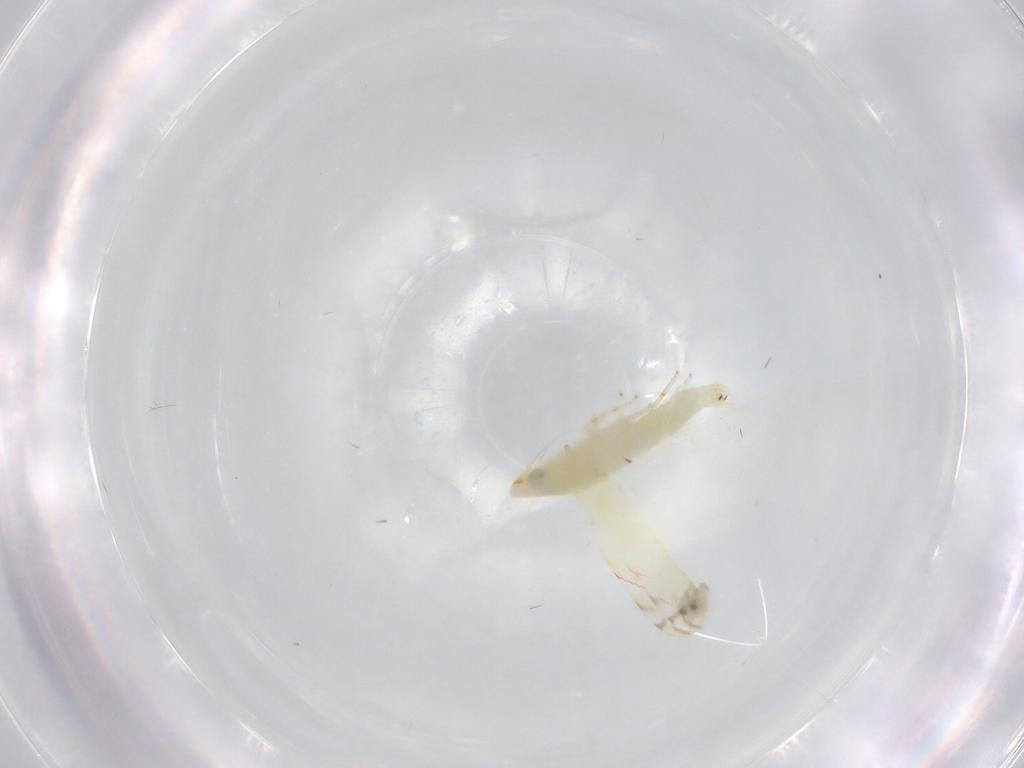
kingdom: Animalia
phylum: Arthropoda
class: Insecta
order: Hemiptera
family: Cicadellidae
